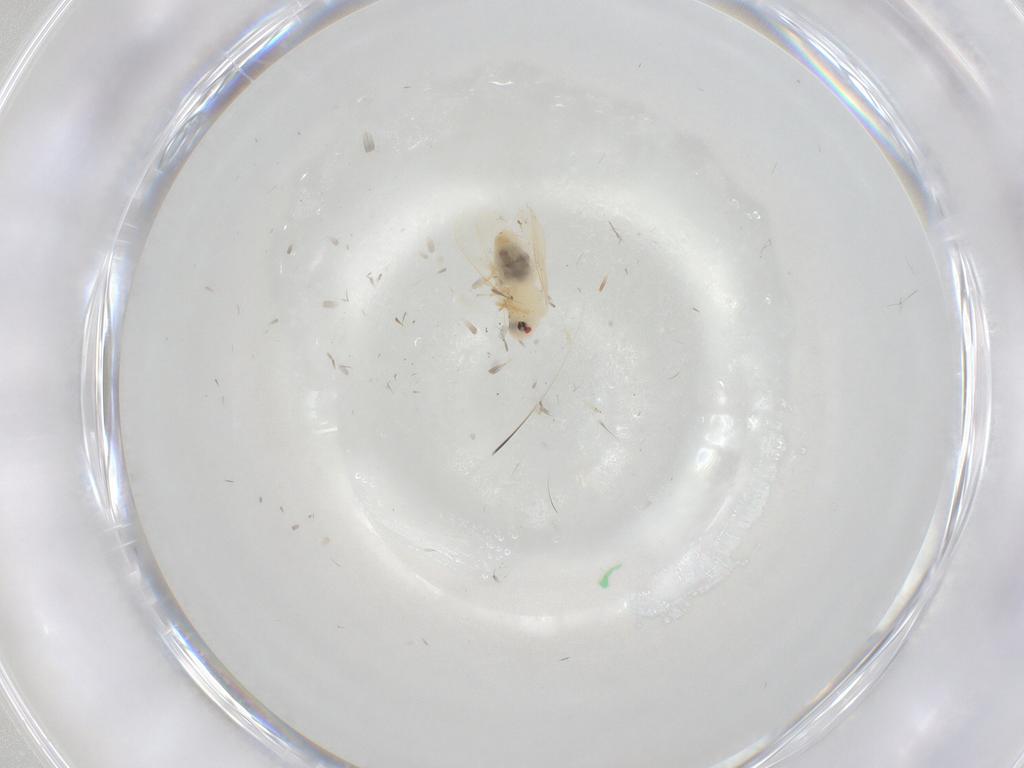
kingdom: Animalia
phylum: Arthropoda
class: Insecta
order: Hemiptera
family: Aleyrodidae
